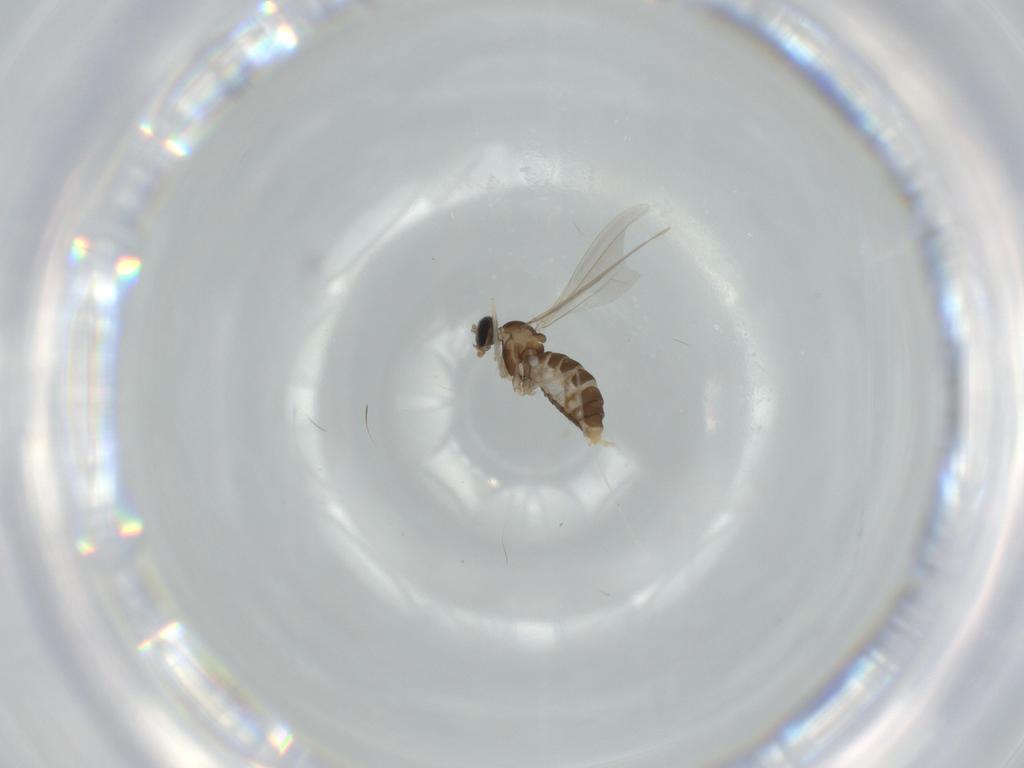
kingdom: Animalia
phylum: Arthropoda
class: Insecta
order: Diptera
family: Cecidomyiidae
